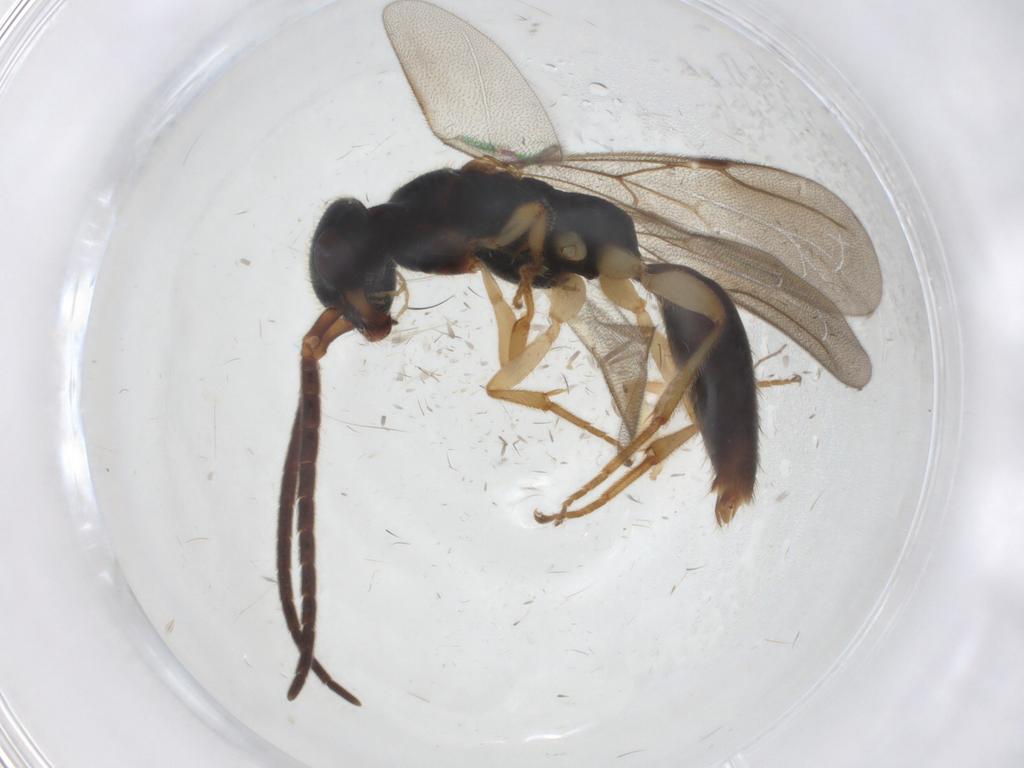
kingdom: Animalia
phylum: Arthropoda
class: Insecta
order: Hymenoptera
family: Bethylidae
